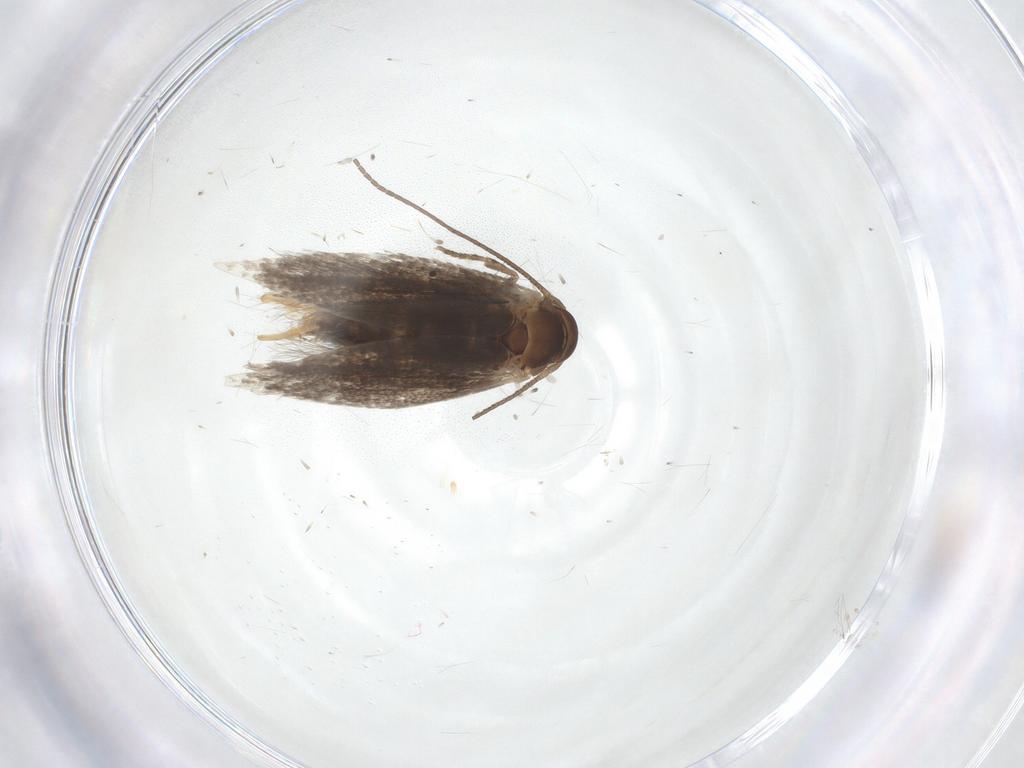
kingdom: Animalia
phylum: Arthropoda
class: Insecta
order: Lepidoptera
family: Elachistidae
